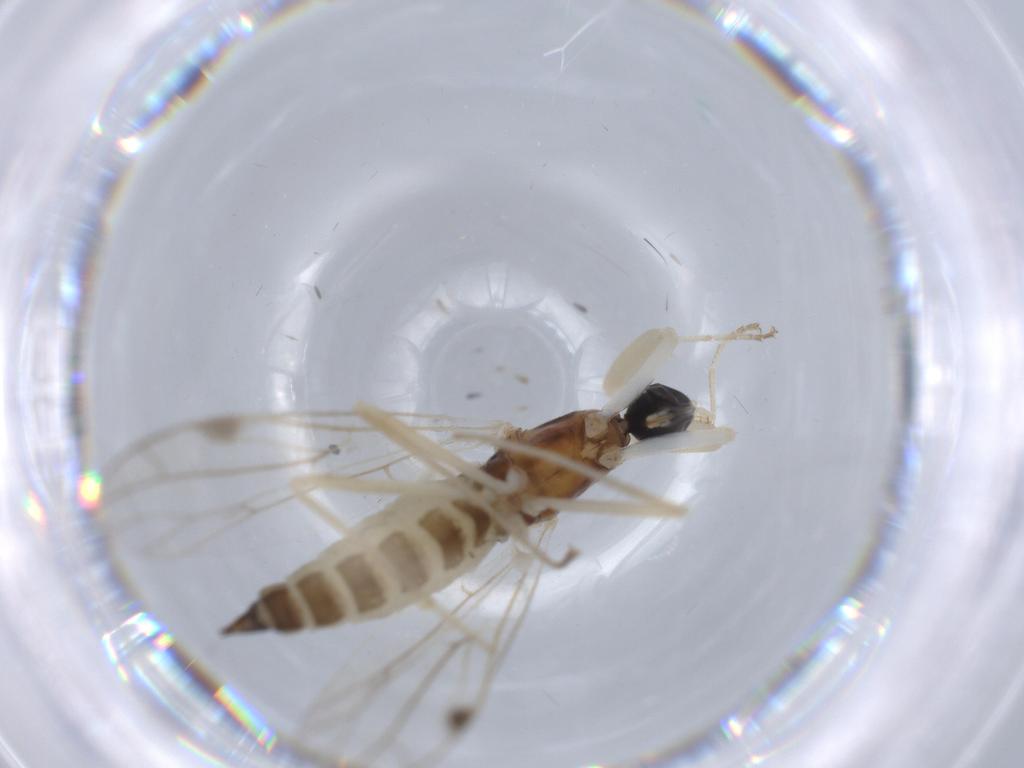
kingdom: Animalia
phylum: Arthropoda
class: Insecta
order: Diptera
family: Empididae
